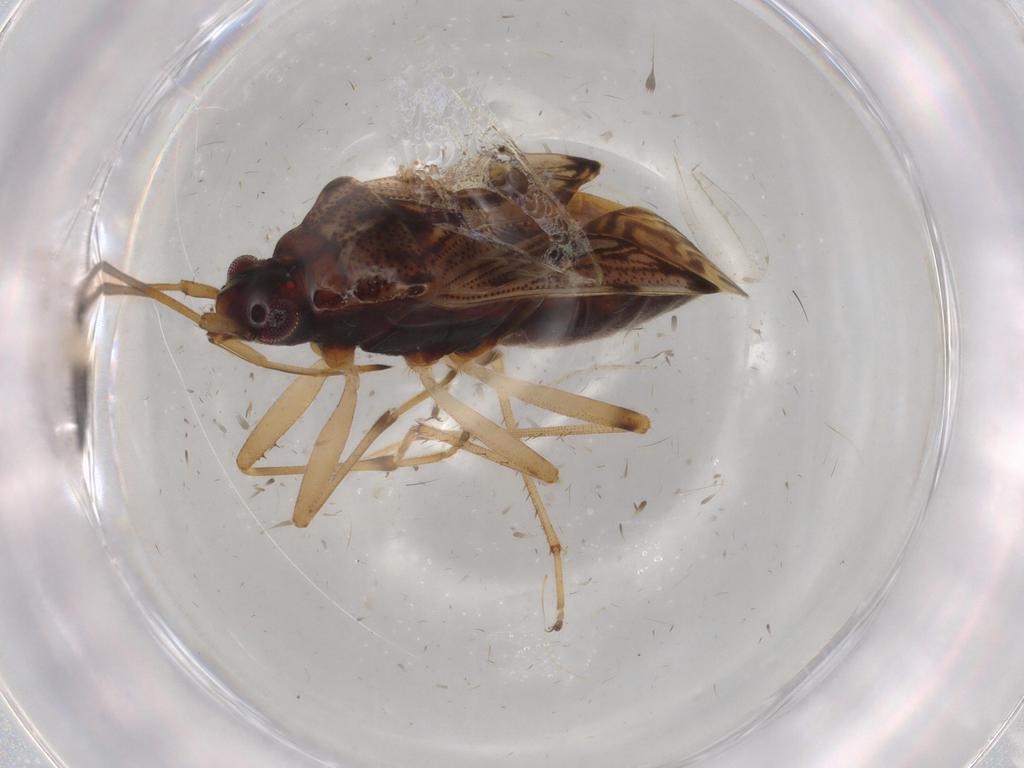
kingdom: Animalia
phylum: Arthropoda
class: Insecta
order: Hemiptera
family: Rhyparochromidae
